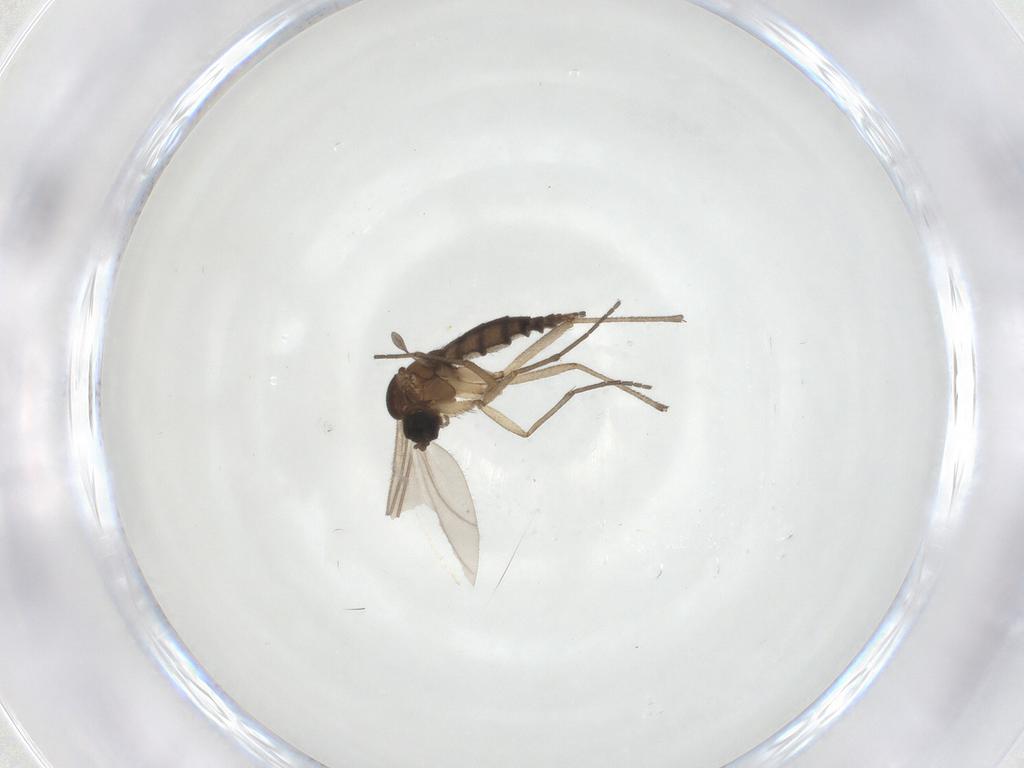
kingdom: Animalia
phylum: Arthropoda
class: Insecta
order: Diptera
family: Sciaridae
